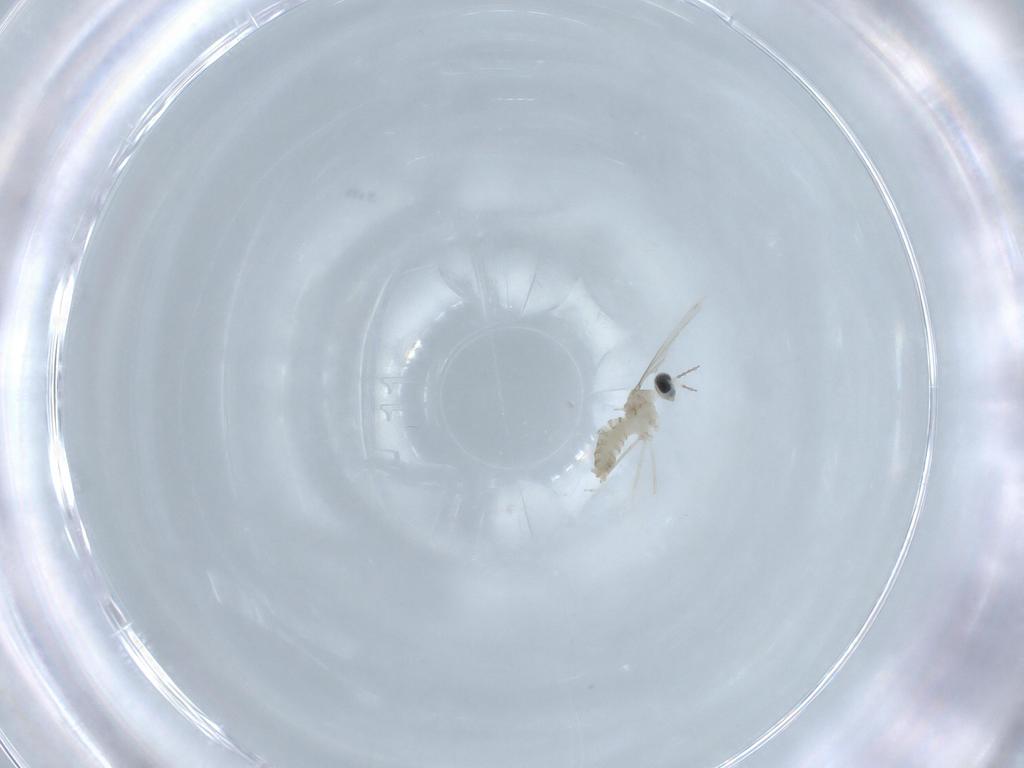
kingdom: Animalia
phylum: Arthropoda
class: Insecta
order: Diptera
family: Cecidomyiidae
